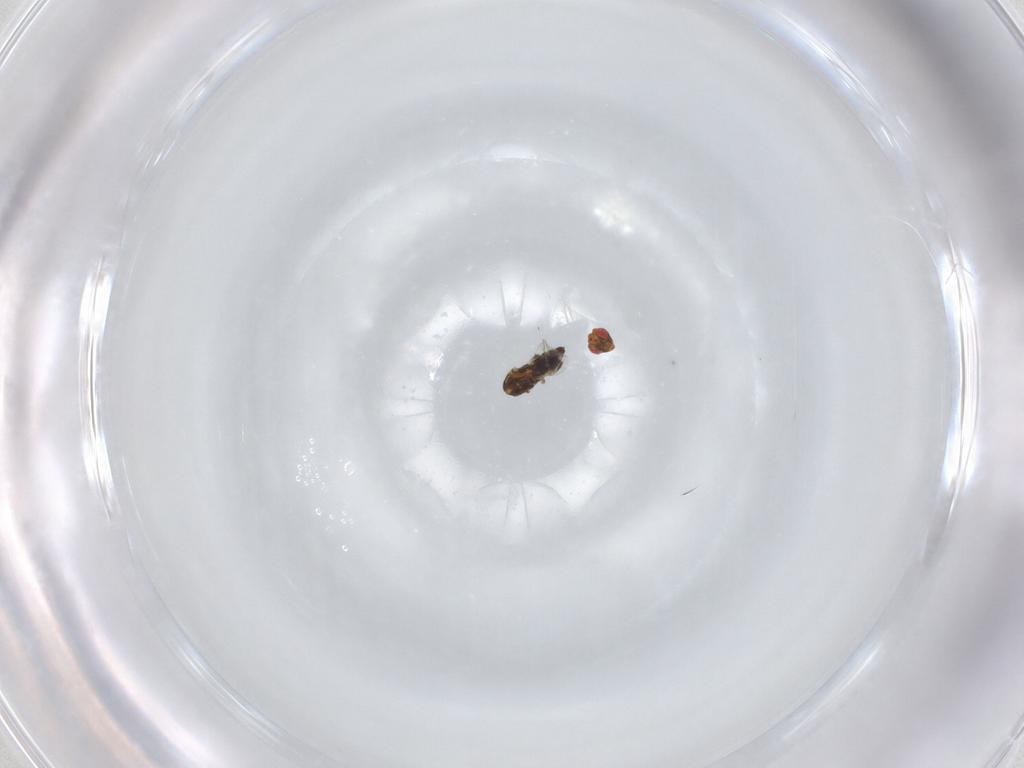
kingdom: Animalia
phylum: Arthropoda
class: Insecta
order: Hymenoptera
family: Trichogrammatidae
